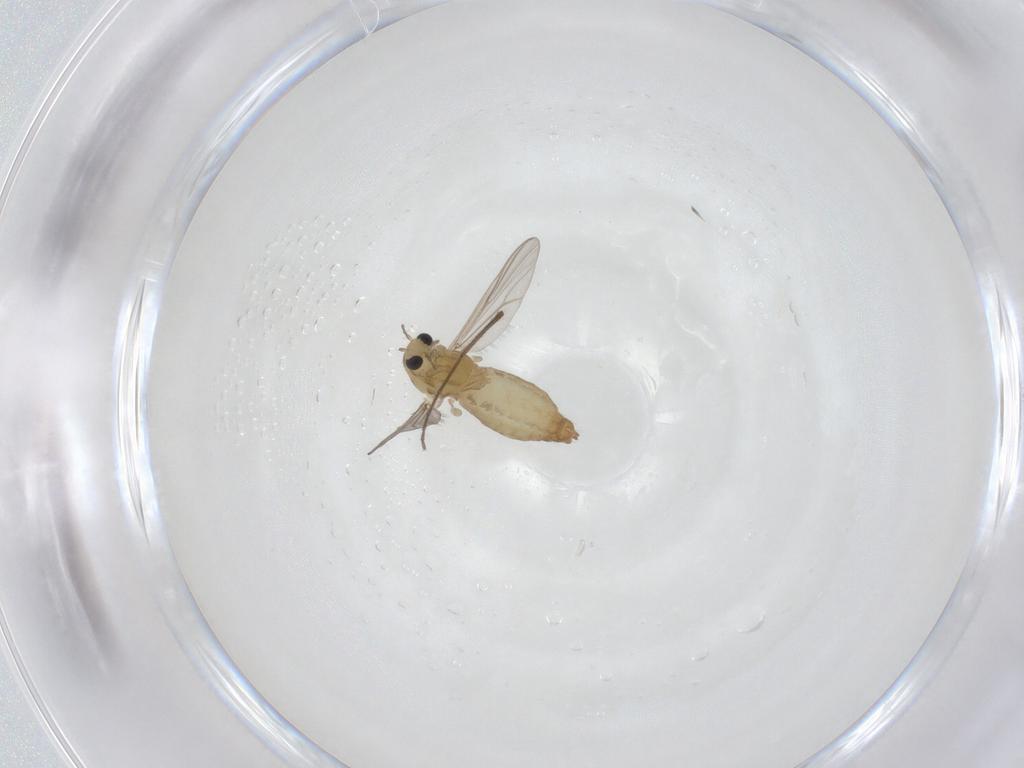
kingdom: Animalia
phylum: Arthropoda
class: Insecta
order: Diptera
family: Chironomidae
